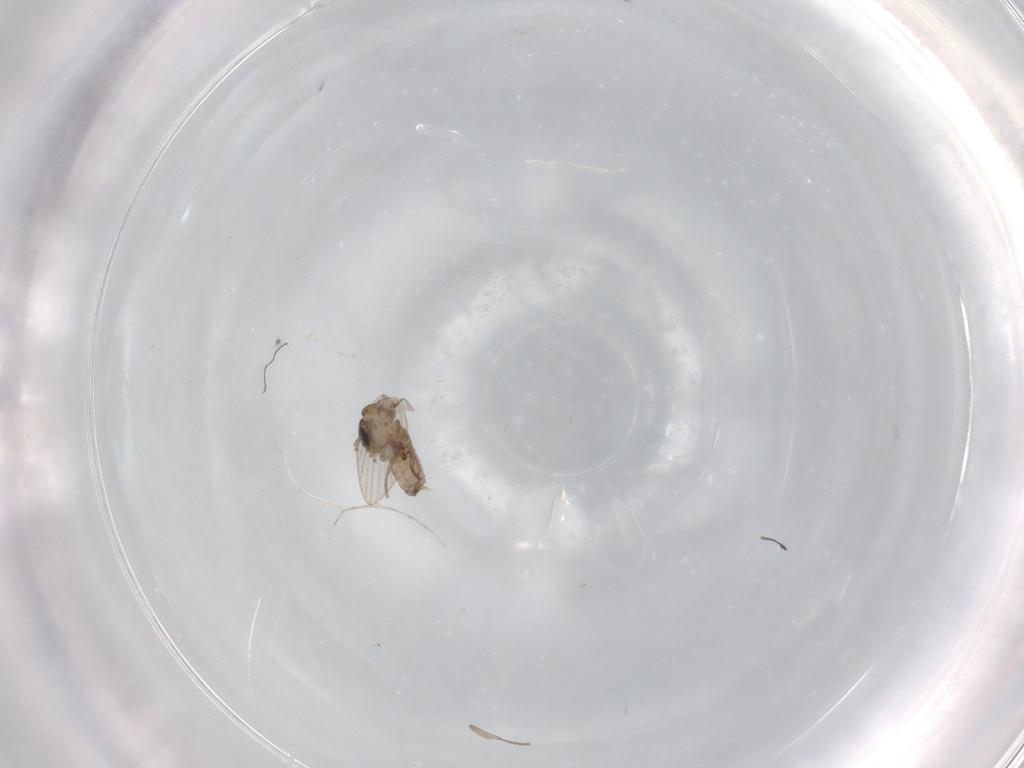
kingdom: Animalia
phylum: Arthropoda
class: Insecta
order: Diptera
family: Psychodidae
